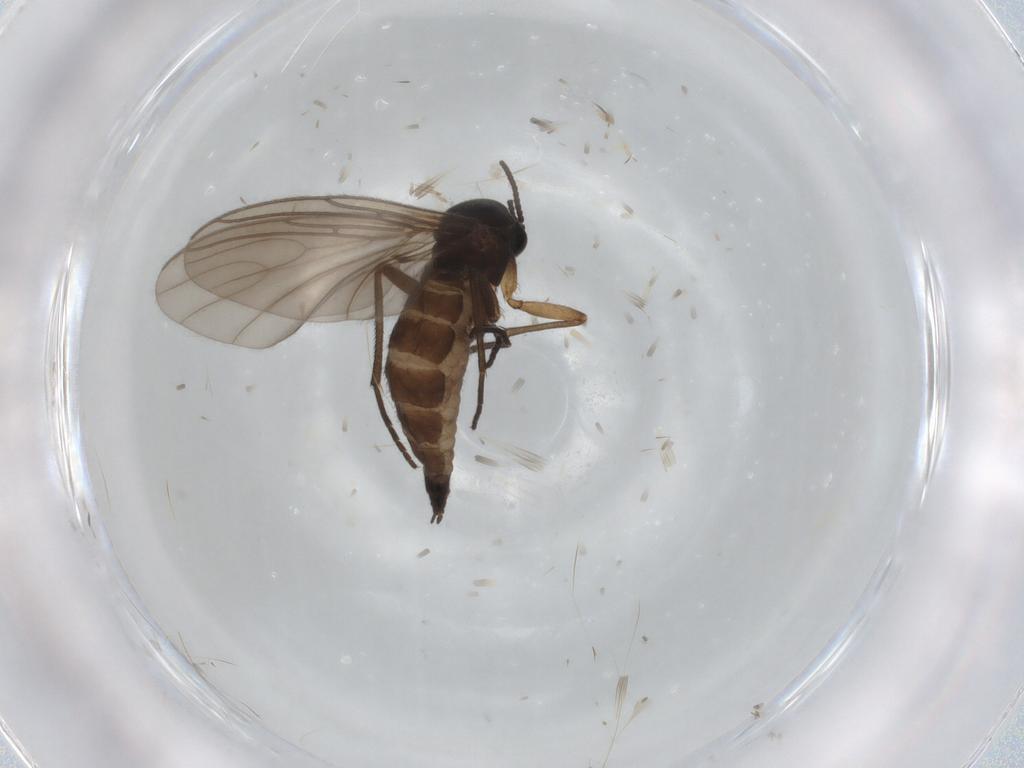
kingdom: Animalia
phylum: Arthropoda
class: Insecta
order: Diptera
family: Sciaridae
